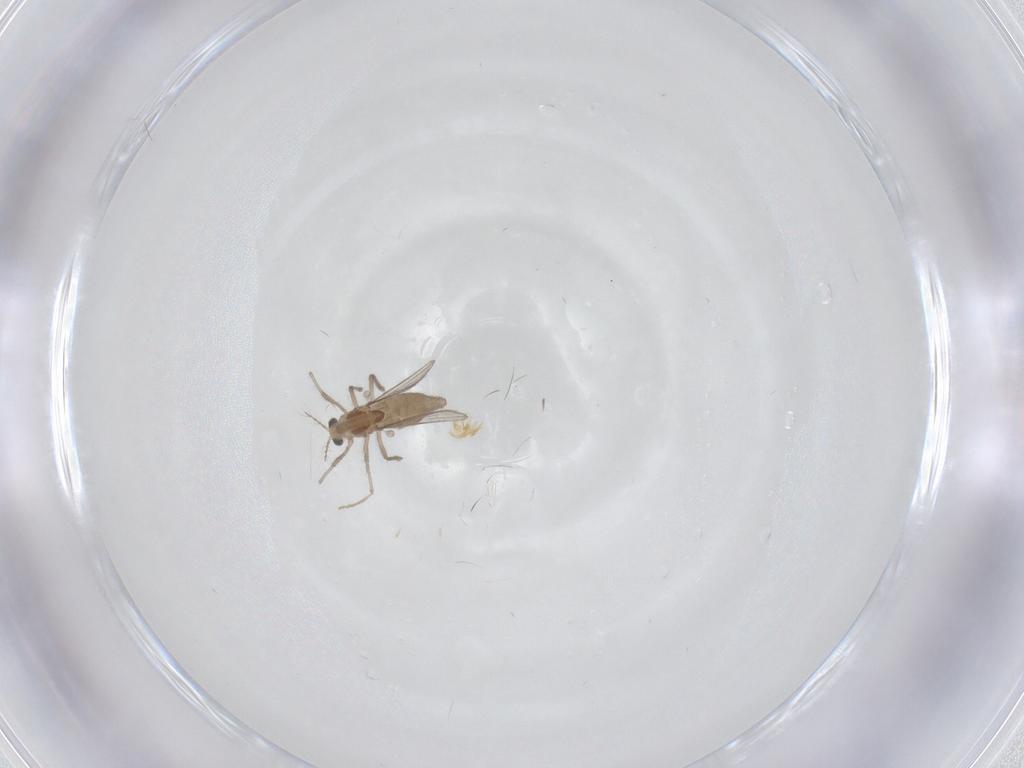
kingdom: Animalia
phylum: Arthropoda
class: Insecta
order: Diptera
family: Chironomidae
